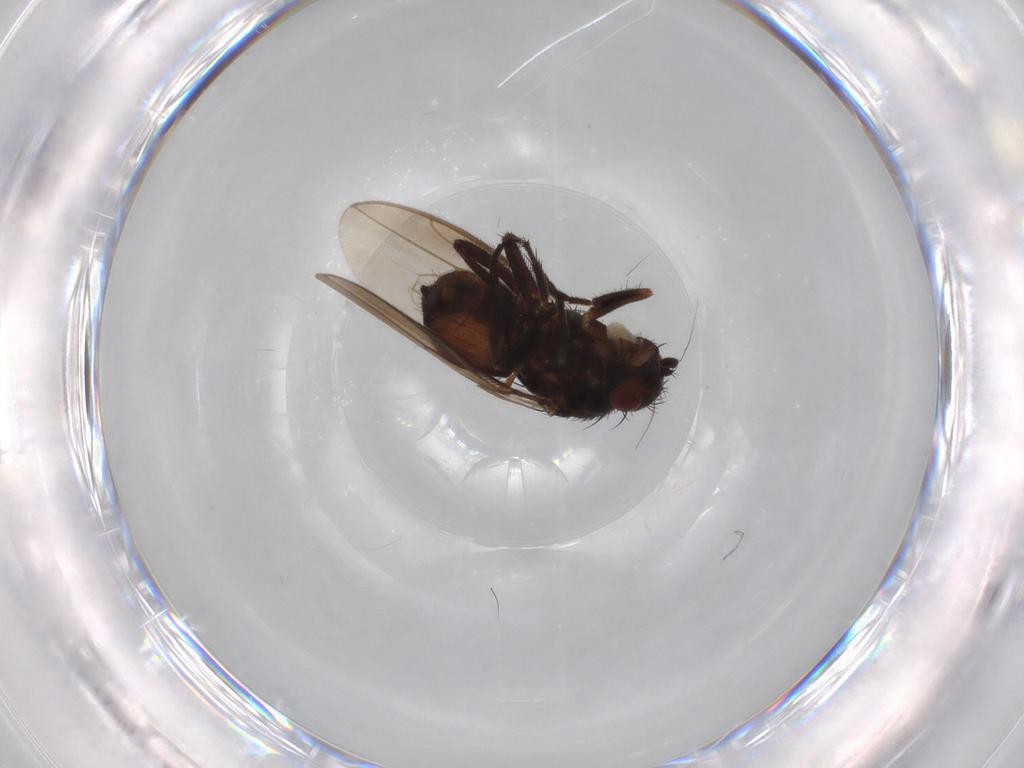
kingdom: Animalia
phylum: Arthropoda
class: Insecta
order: Diptera
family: Sphaeroceridae
